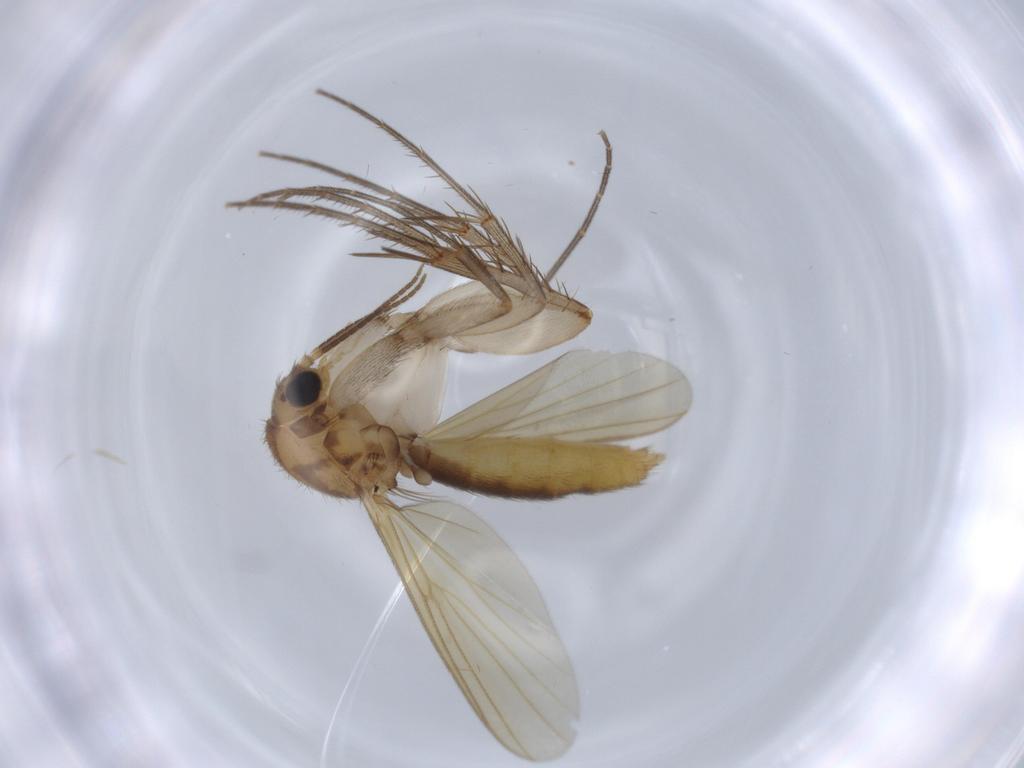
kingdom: Animalia
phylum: Arthropoda
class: Insecta
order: Diptera
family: Mycetophilidae
